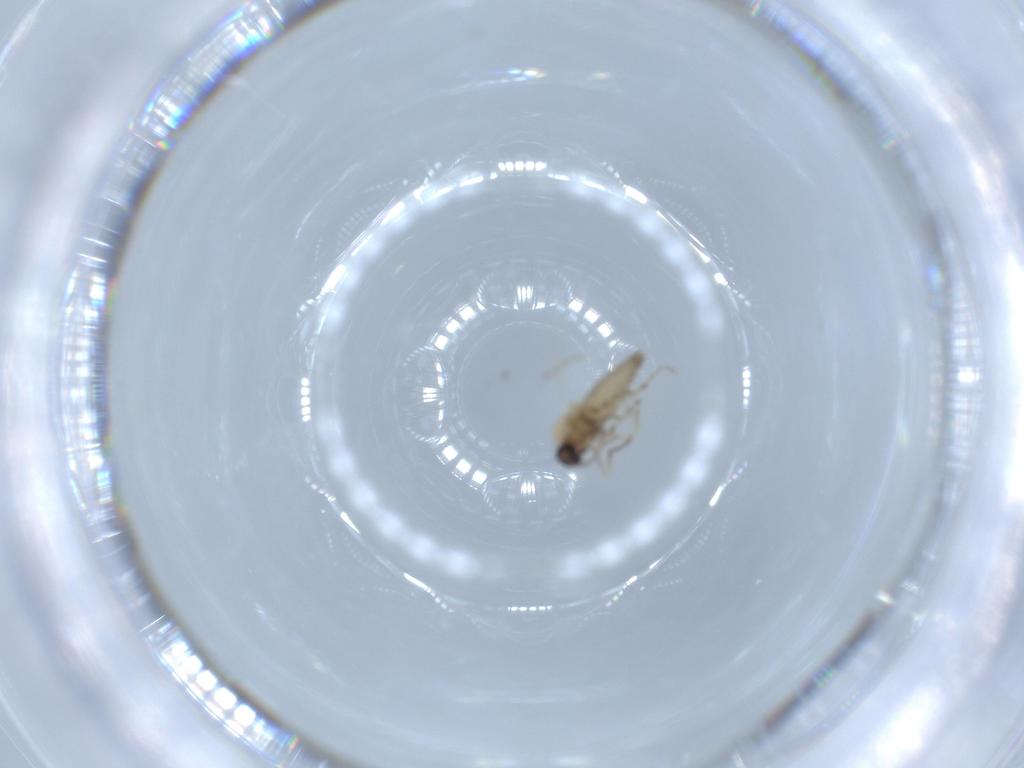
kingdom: Animalia
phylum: Arthropoda
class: Insecta
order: Diptera
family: Ceratopogonidae
